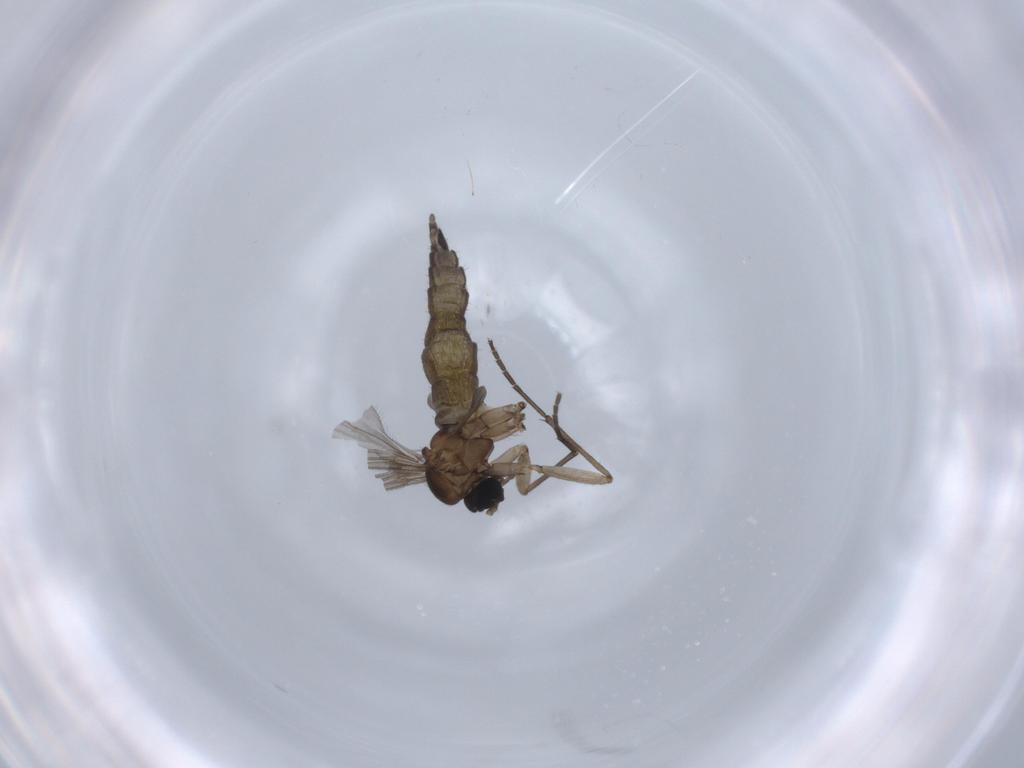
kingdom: Animalia
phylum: Arthropoda
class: Insecta
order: Diptera
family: Sciaridae
